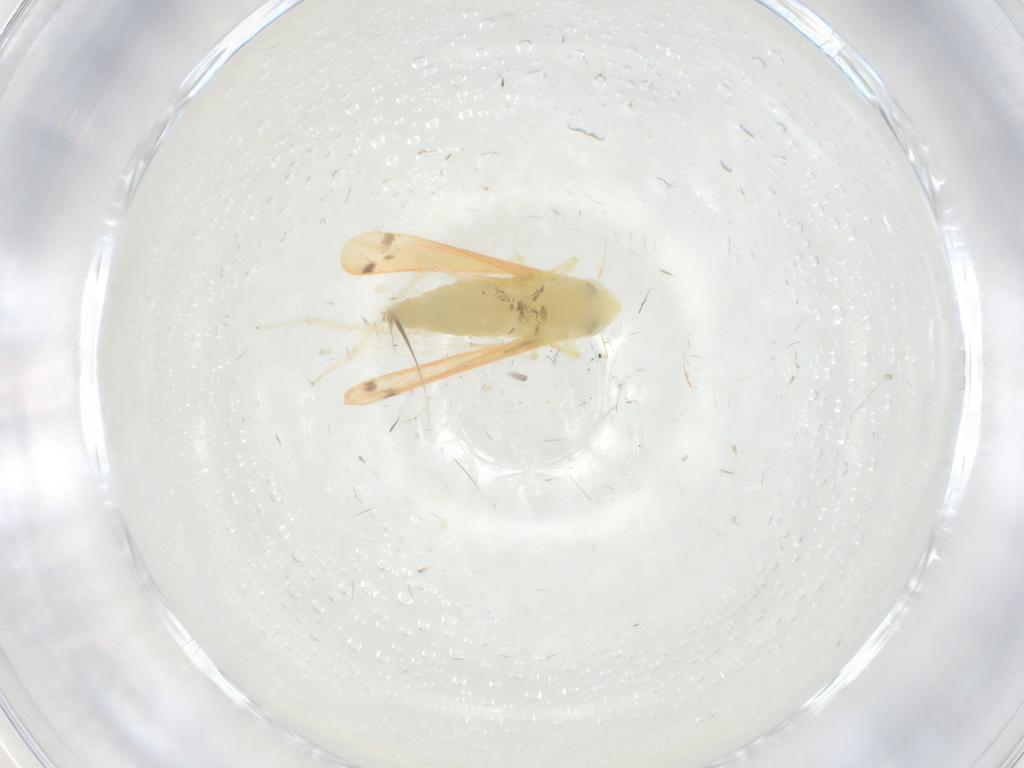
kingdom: Animalia
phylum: Arthropoda
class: Insecta
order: Hemiptera
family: Cicadellidae
